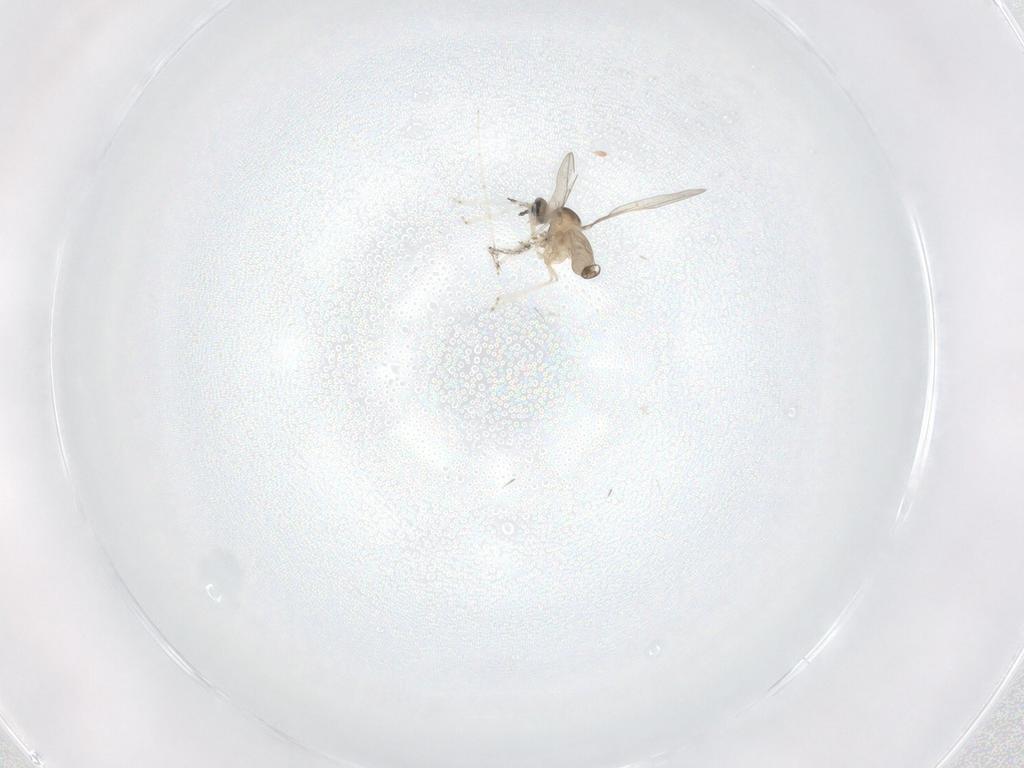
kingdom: Animalia
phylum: Arthropoda
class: Insecta
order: Diptera
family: Cecidomyiidae
